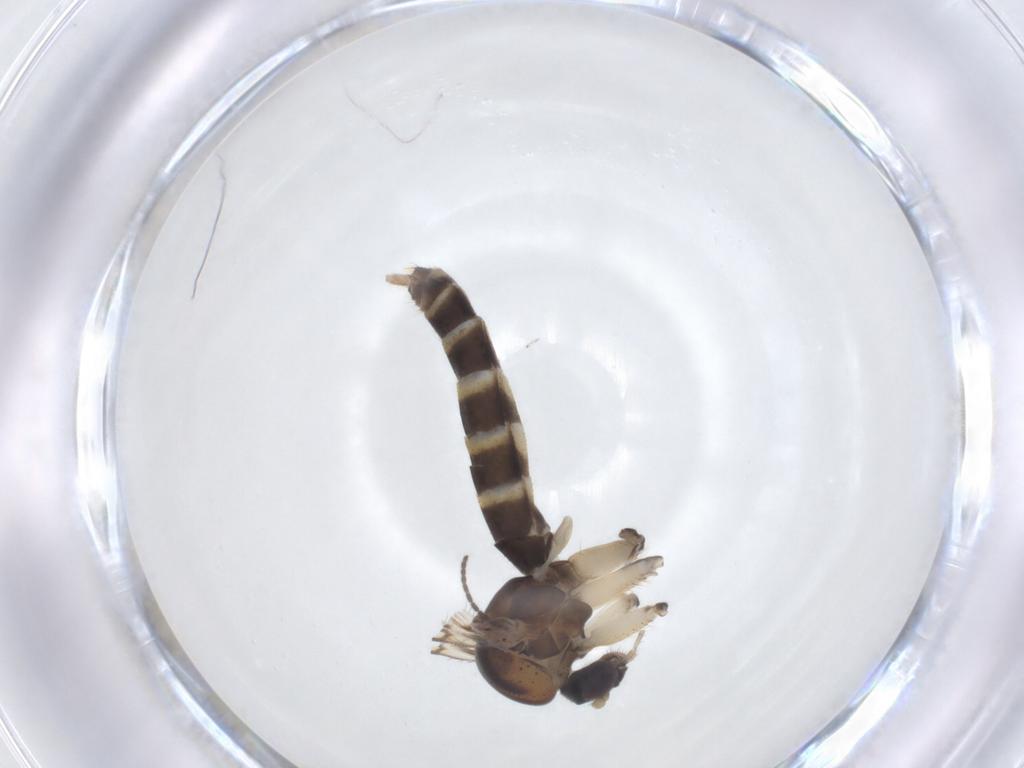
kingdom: Animalia
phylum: Arthropoda
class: Insecta
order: Diptera
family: Mycetophilidae
